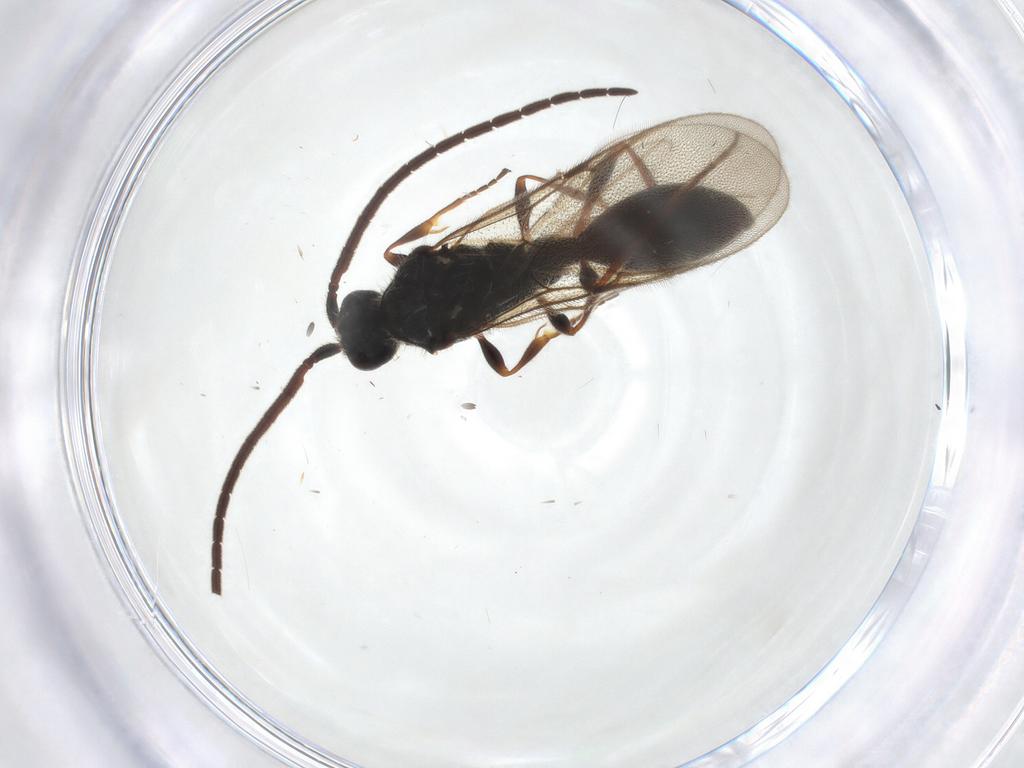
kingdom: Animalia
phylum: Arthropoda
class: Insecta
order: Hymenoptera
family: Diapriidae
